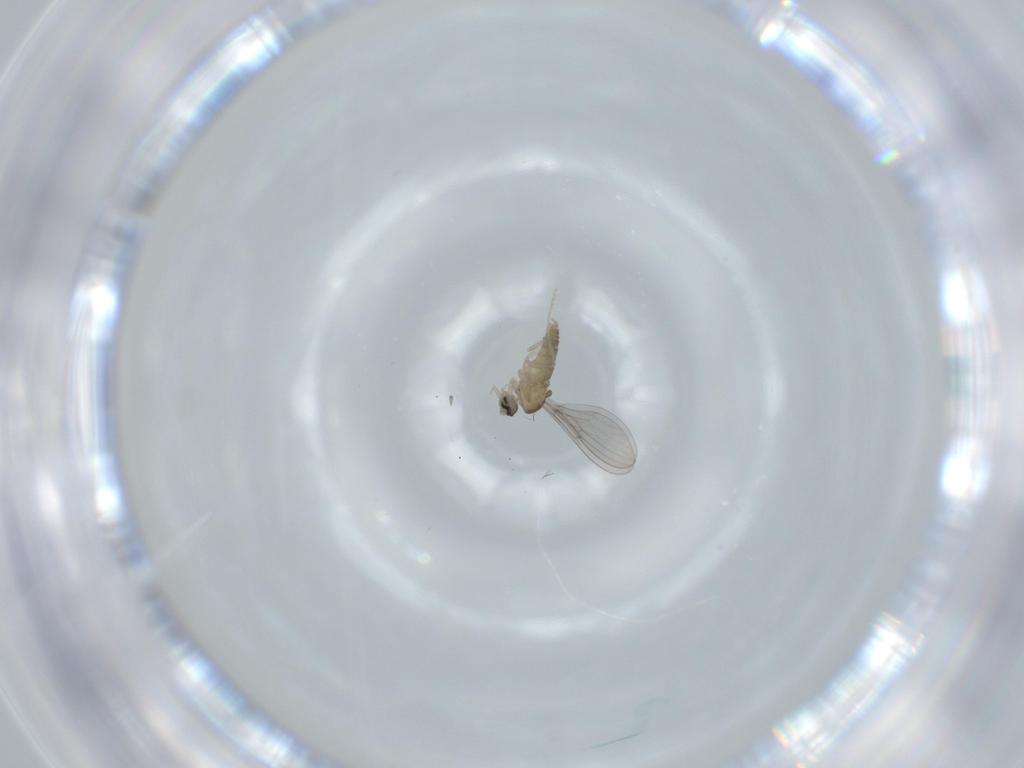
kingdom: Animalia
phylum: Arthropoda
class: Insecta
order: Diptera
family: Cecidomyiidae
